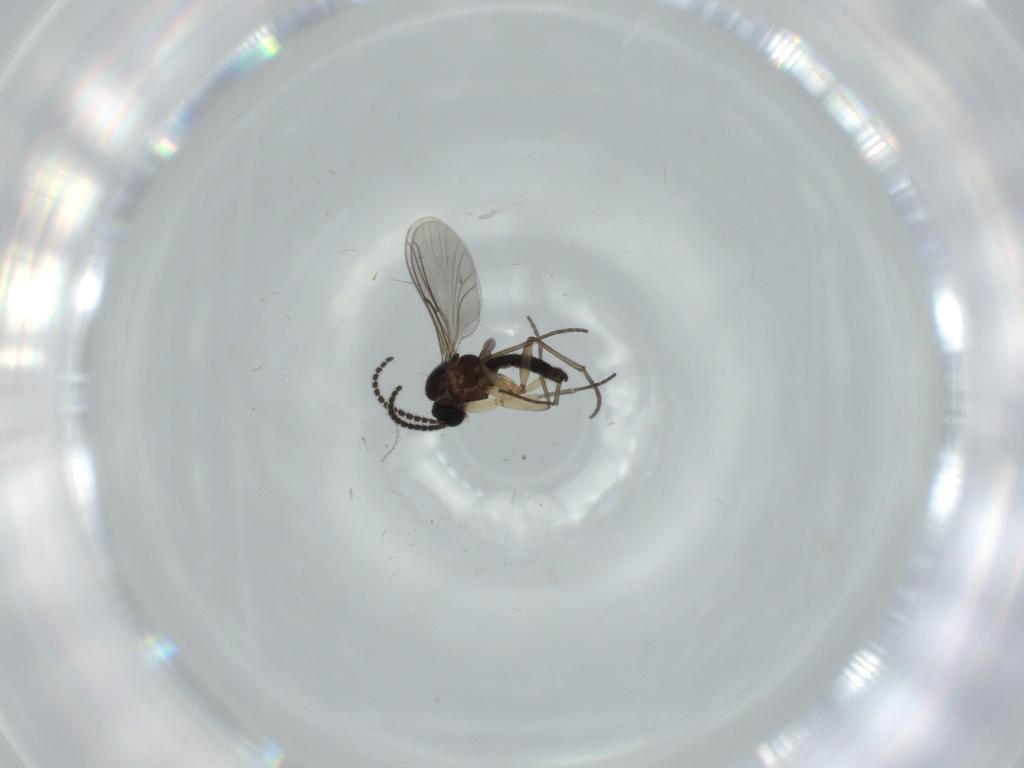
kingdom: Animalia
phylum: Arthropoda
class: Insecta
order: Diptera
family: Sciaridae
